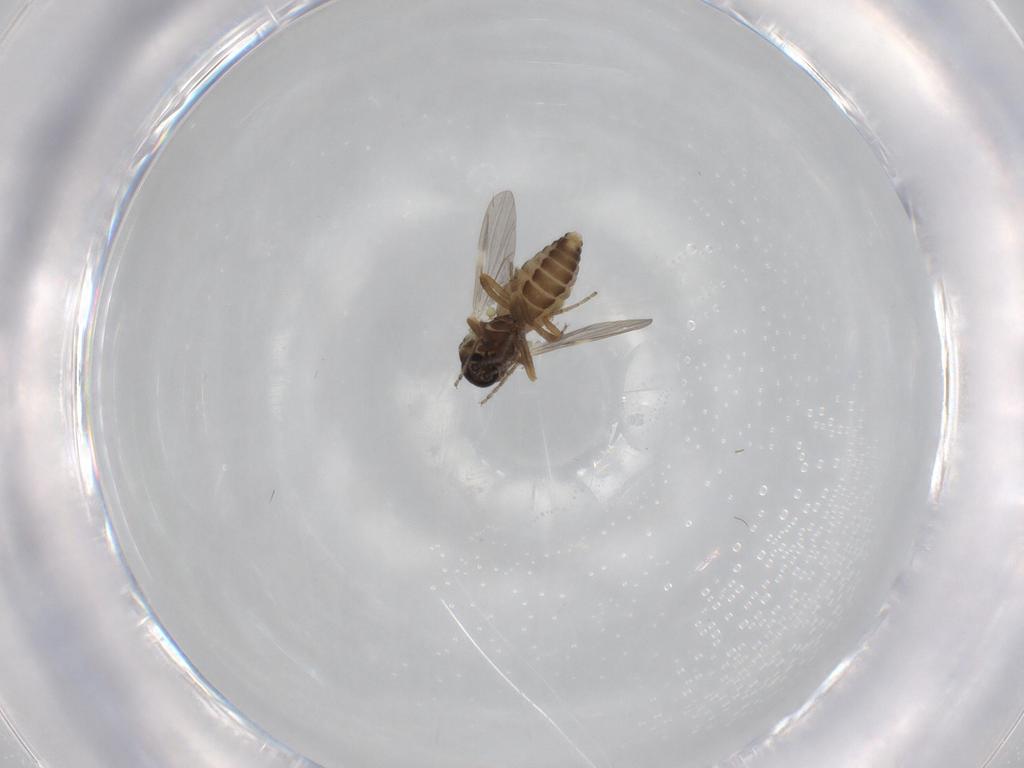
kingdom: Animalia
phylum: Arthropoda
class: Insecta
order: Diptera
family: Ceratopogonidae
